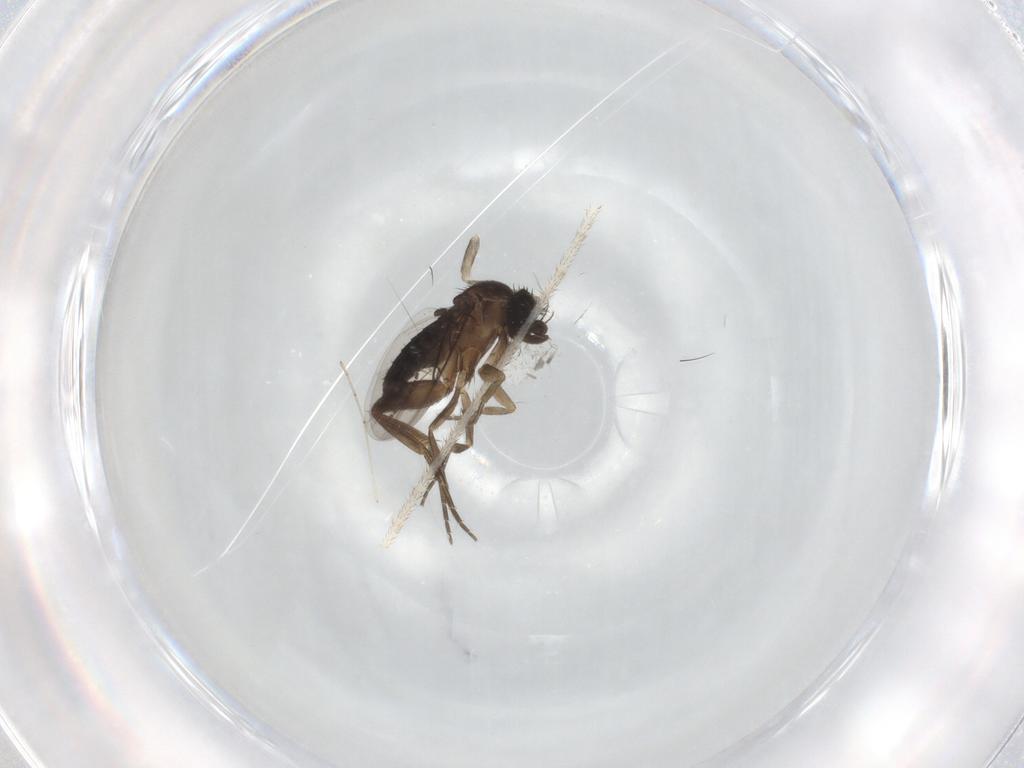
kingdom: Animalia
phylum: Arthropoda
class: Insecta
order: Diptera
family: Phoridae
